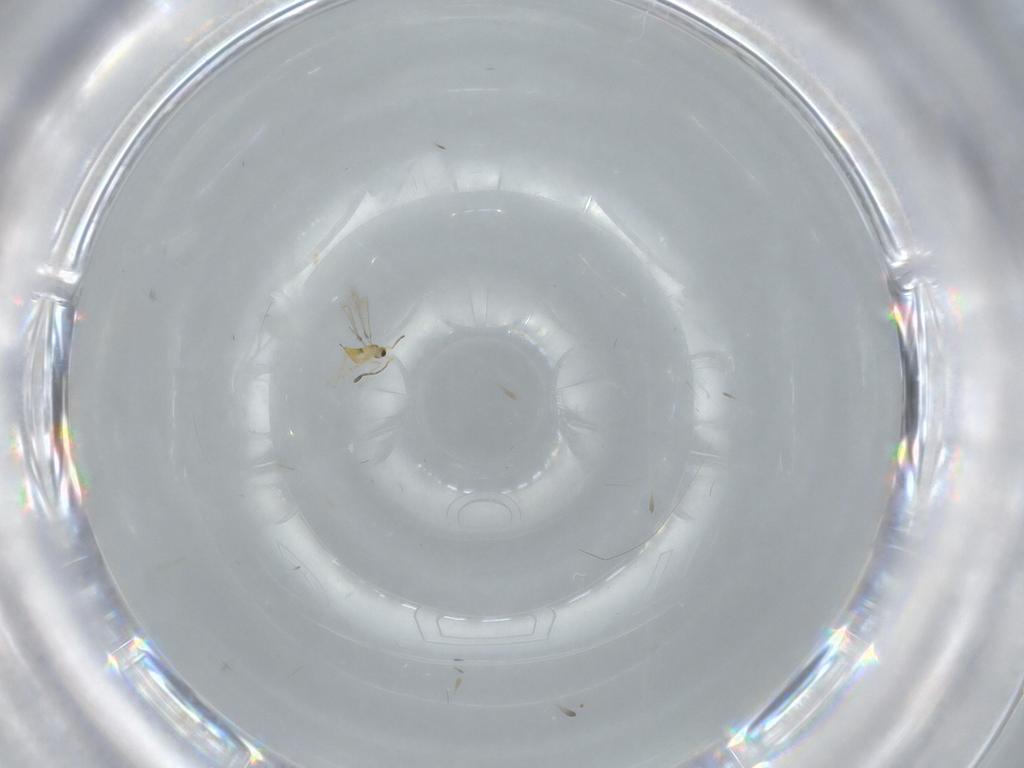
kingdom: Animalia
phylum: Arthropoda
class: Insecta
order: Hymenoptera
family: Mymaridae
